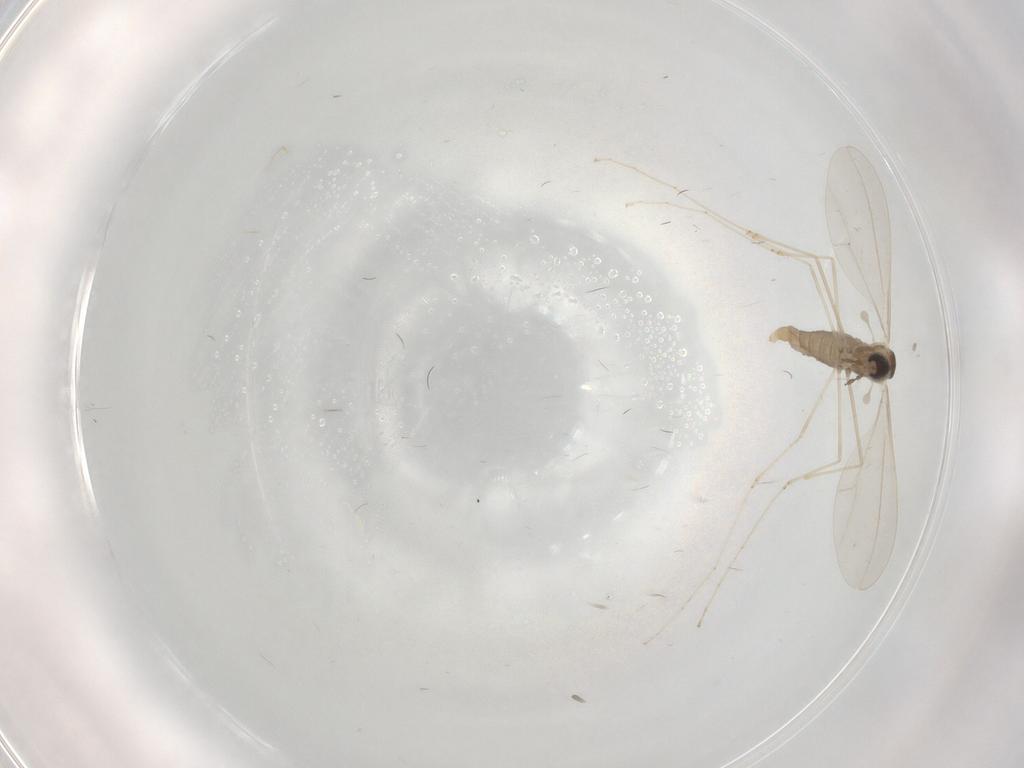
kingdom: Animalia
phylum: Arthropoda
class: Insecta
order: Diptera
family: Cecidomyiidae
